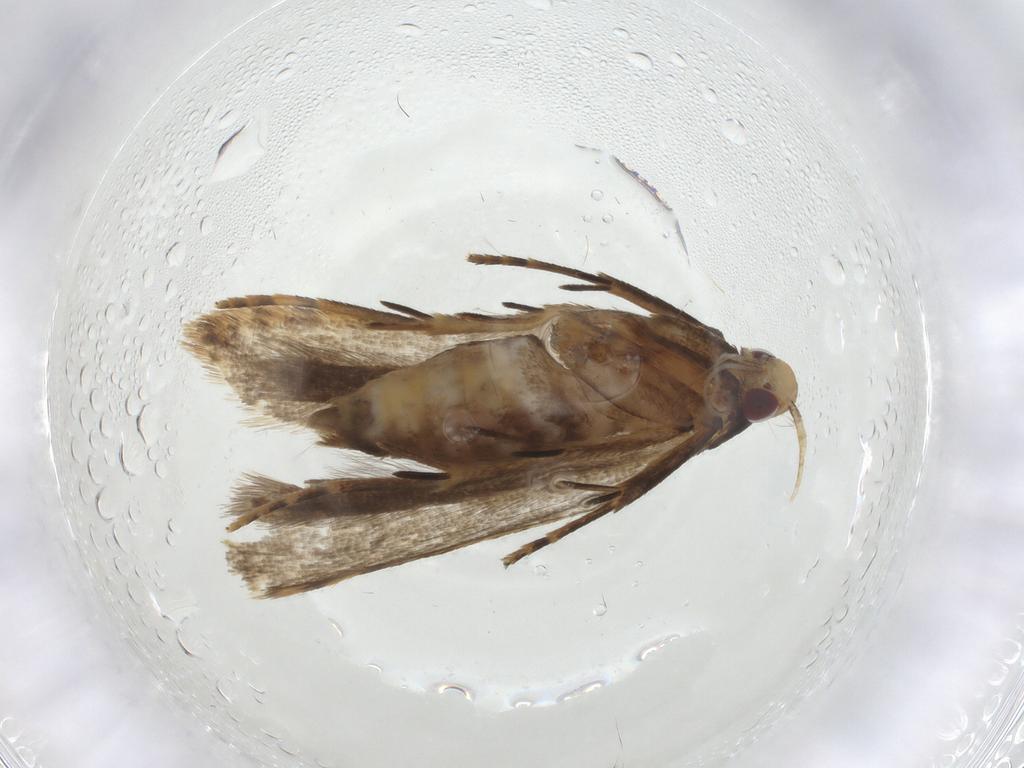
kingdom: Animalia
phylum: Arthropoda
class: Insecta
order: Lepidoptera
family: Gelechiidae
